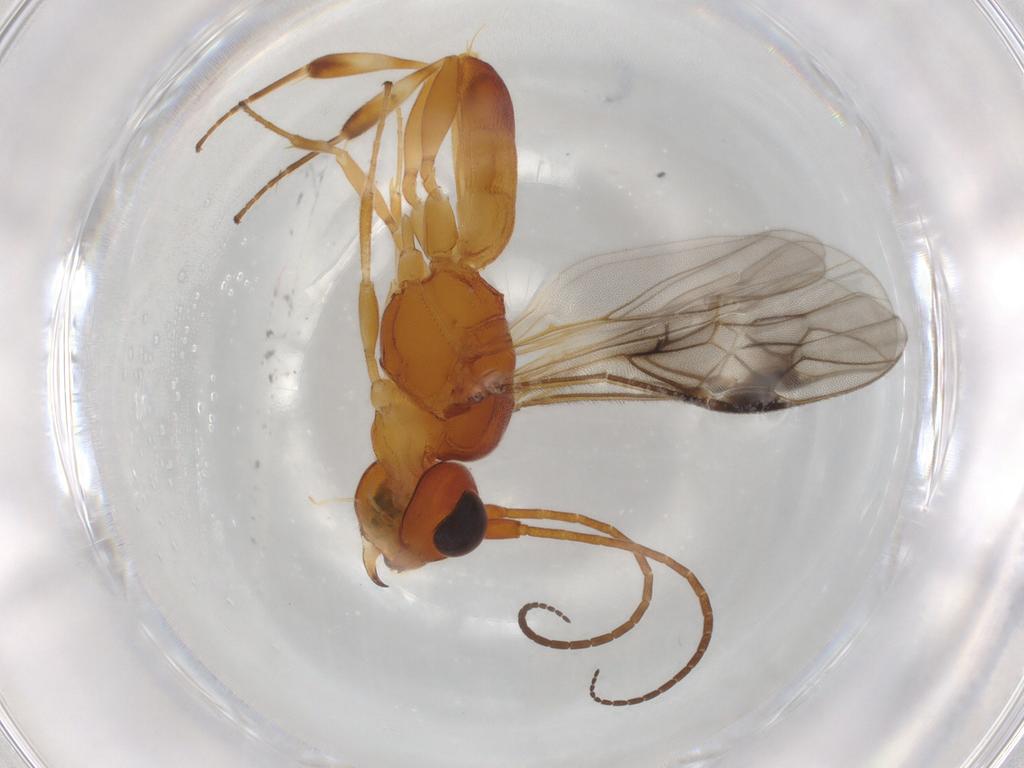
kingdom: Animalia
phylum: Arthropoda
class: Insecta
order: Hymenoptera
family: Braconidae
